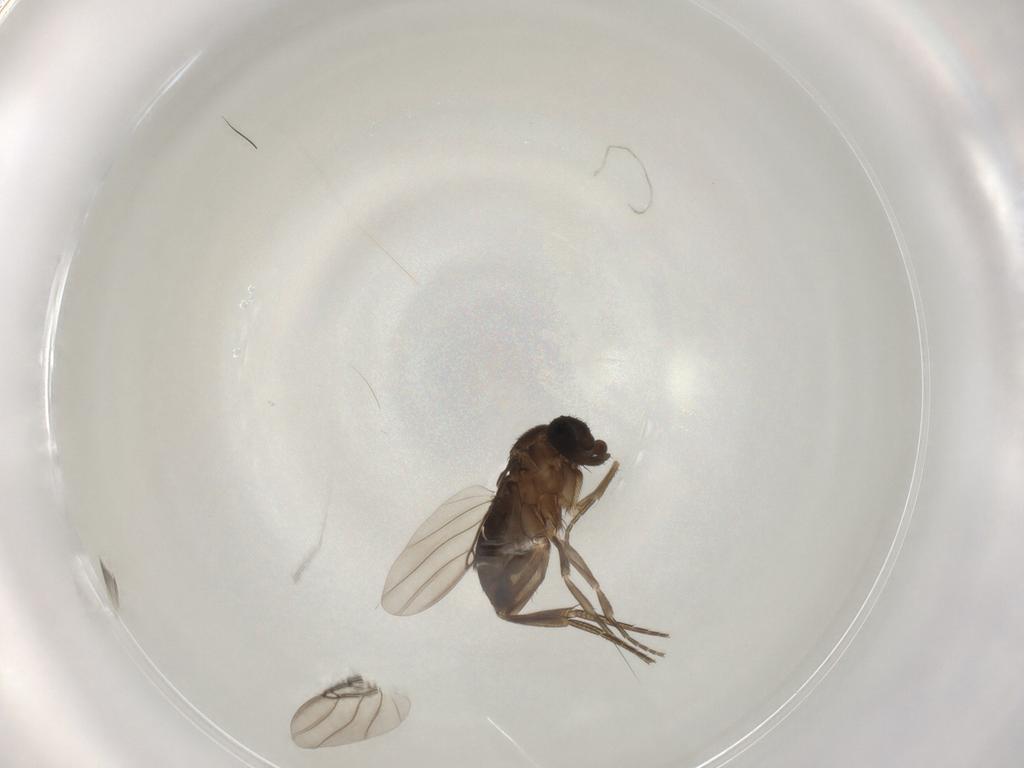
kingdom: Animalia
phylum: Arthropoda
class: Insecta
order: Diptera
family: Phoridae
